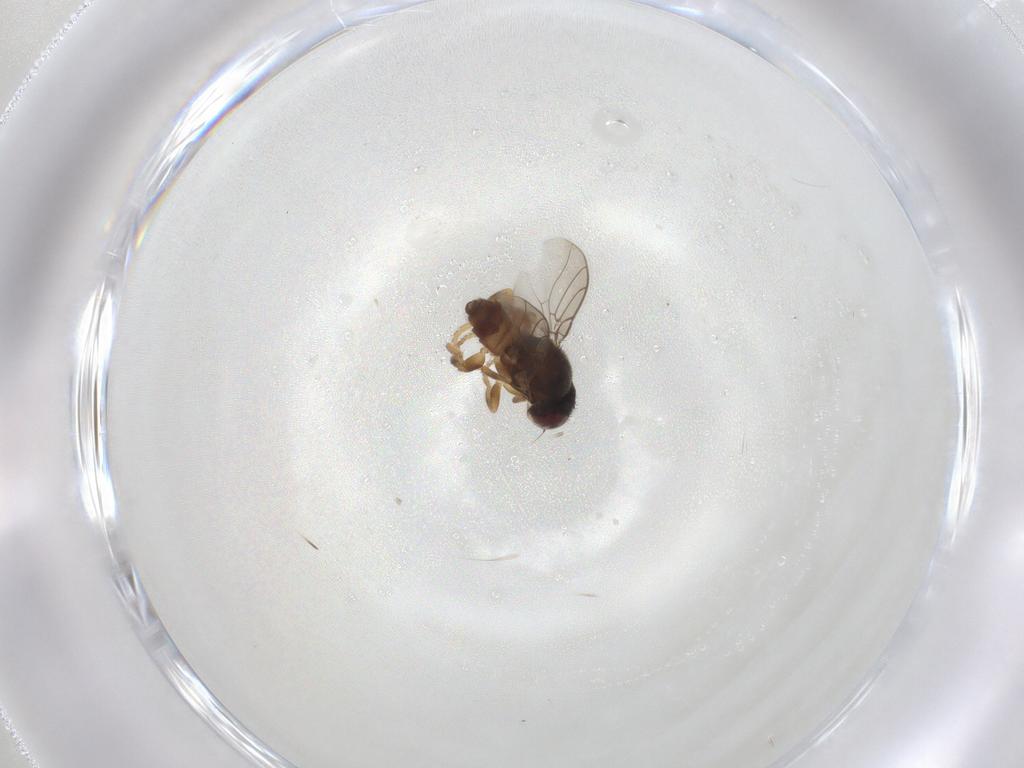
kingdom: Animalia
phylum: Arthropoda
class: Insecta
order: Diptera
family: Chloropidae
